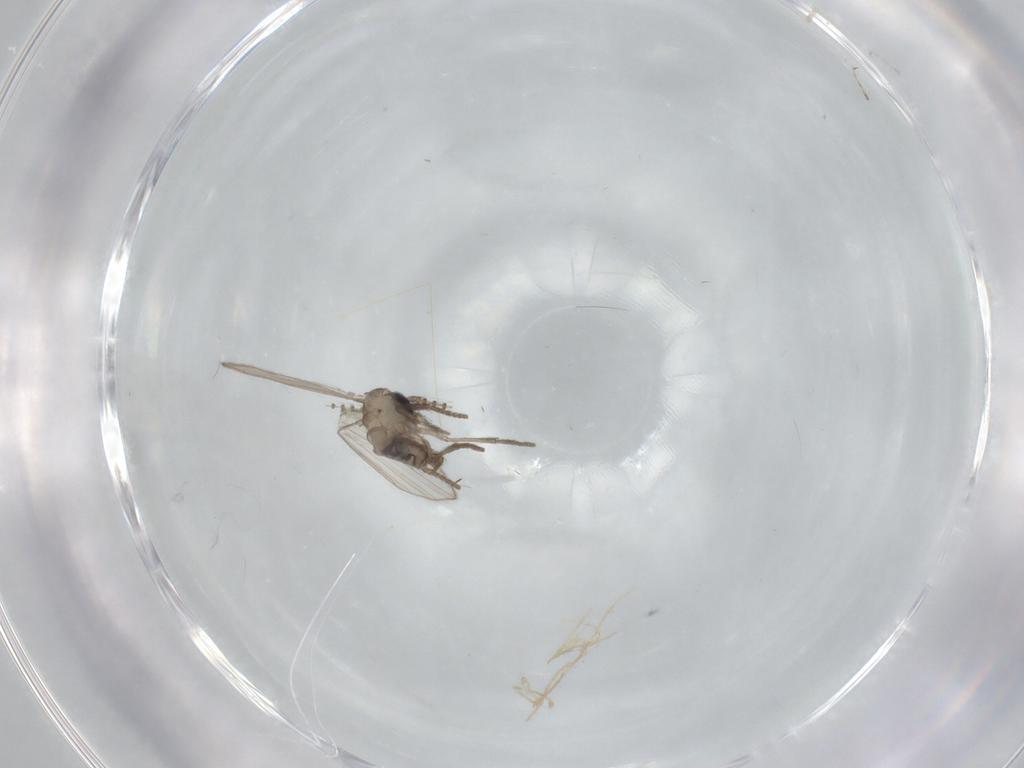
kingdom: Animalia
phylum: Arthropoda
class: Insecta
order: Diptera
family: Psychodidae
